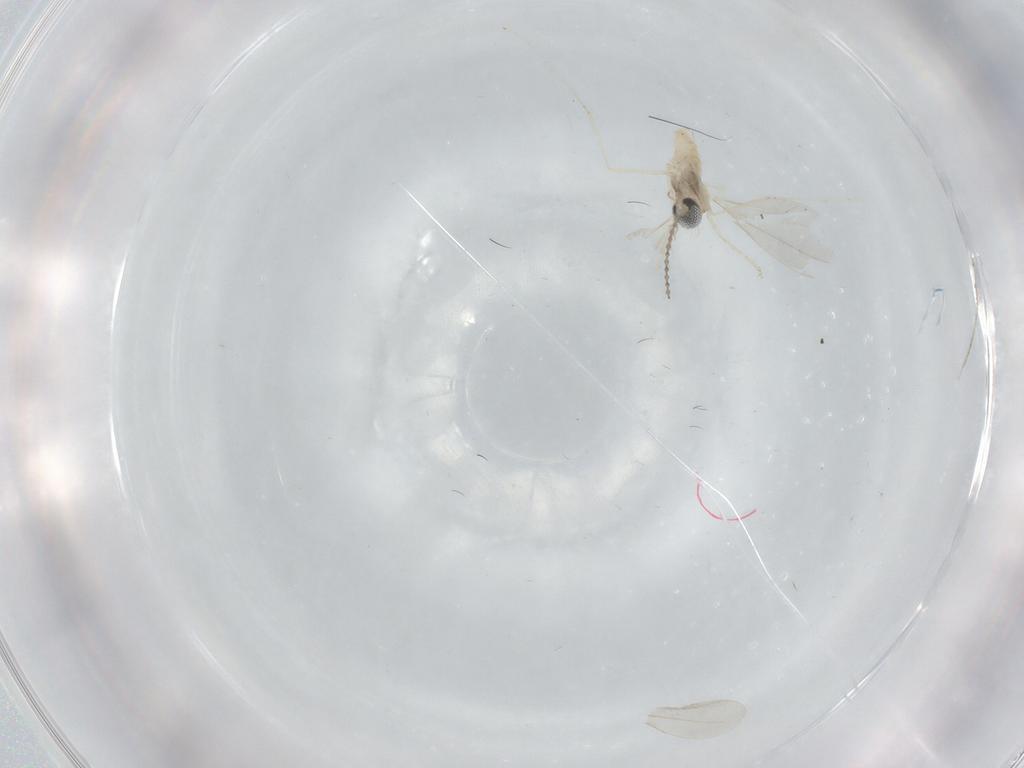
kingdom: Animalia
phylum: Arthropoda
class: Insecta
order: Diptera
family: Cecidomyiidae
